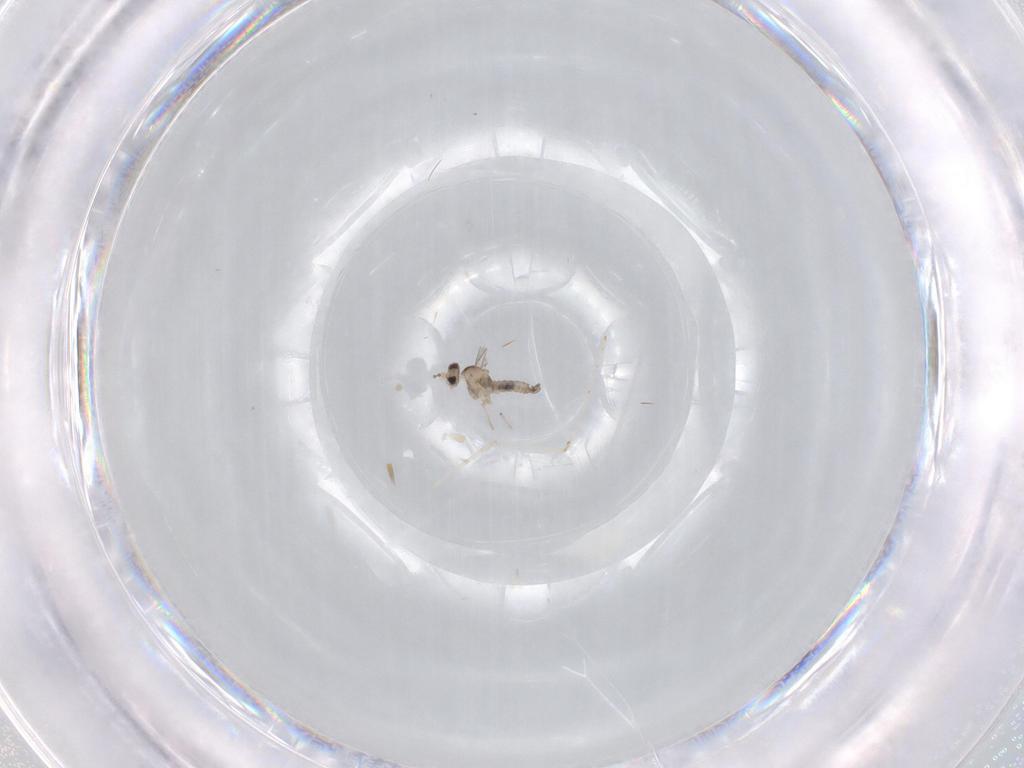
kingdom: Animalia
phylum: Arthropoda
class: Insecta
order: Diptera
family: Cecidomyiidae
